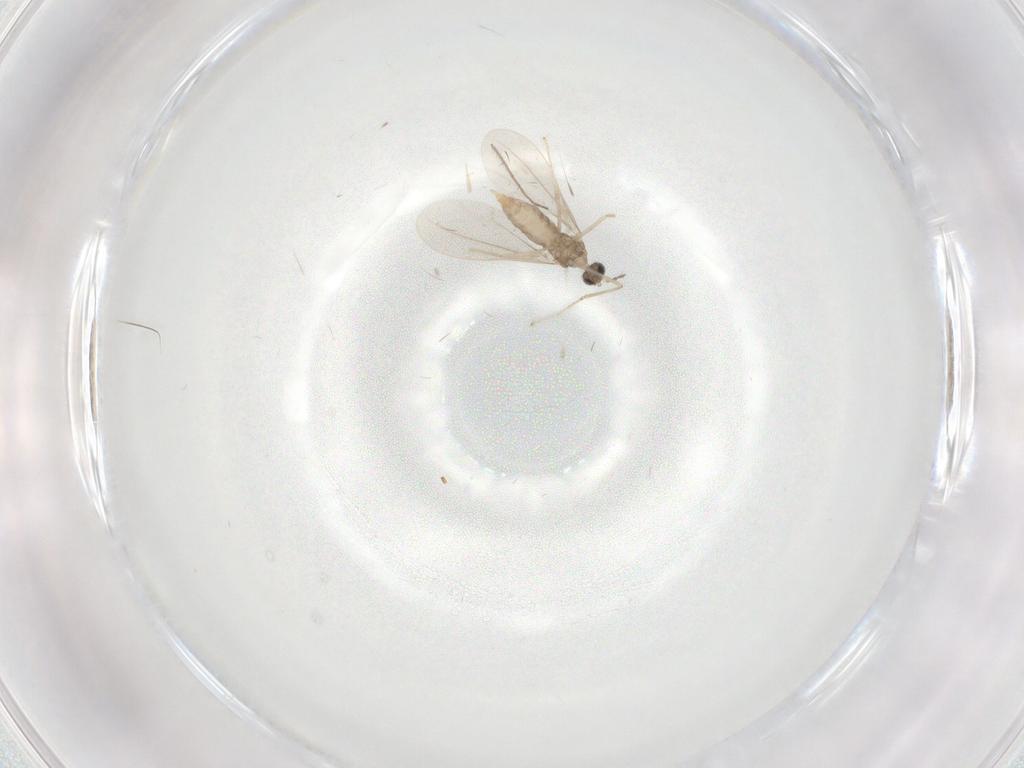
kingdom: Animalia
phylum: Arthropoda
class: Insecta
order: Diptera
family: Cecidomyiidae
